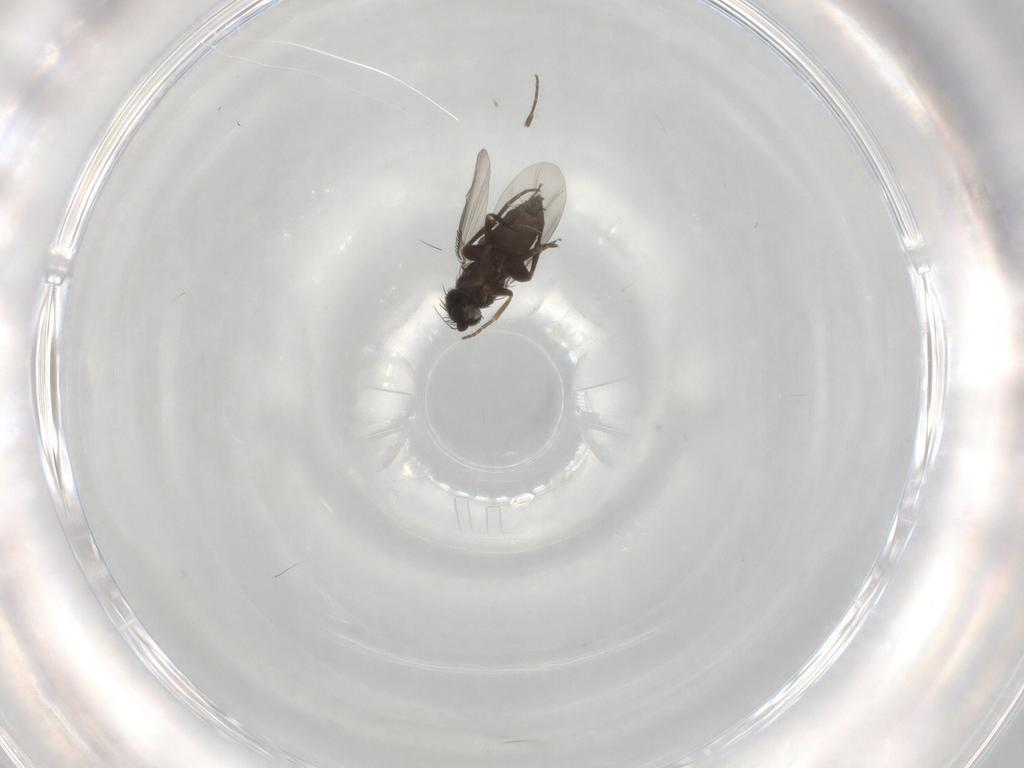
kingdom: Animalia
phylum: Arthropoda
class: Insecta
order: Diptera
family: Phoridae
